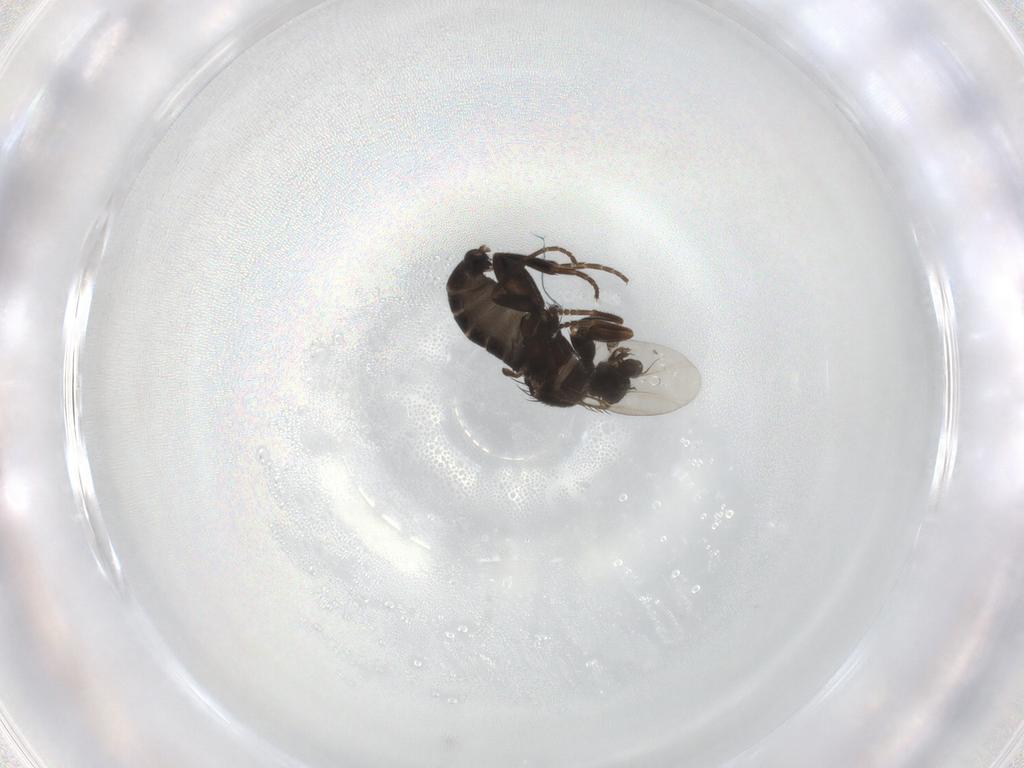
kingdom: Animalia
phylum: Arthropoda
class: Insecta
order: Diptera
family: Phoridae
